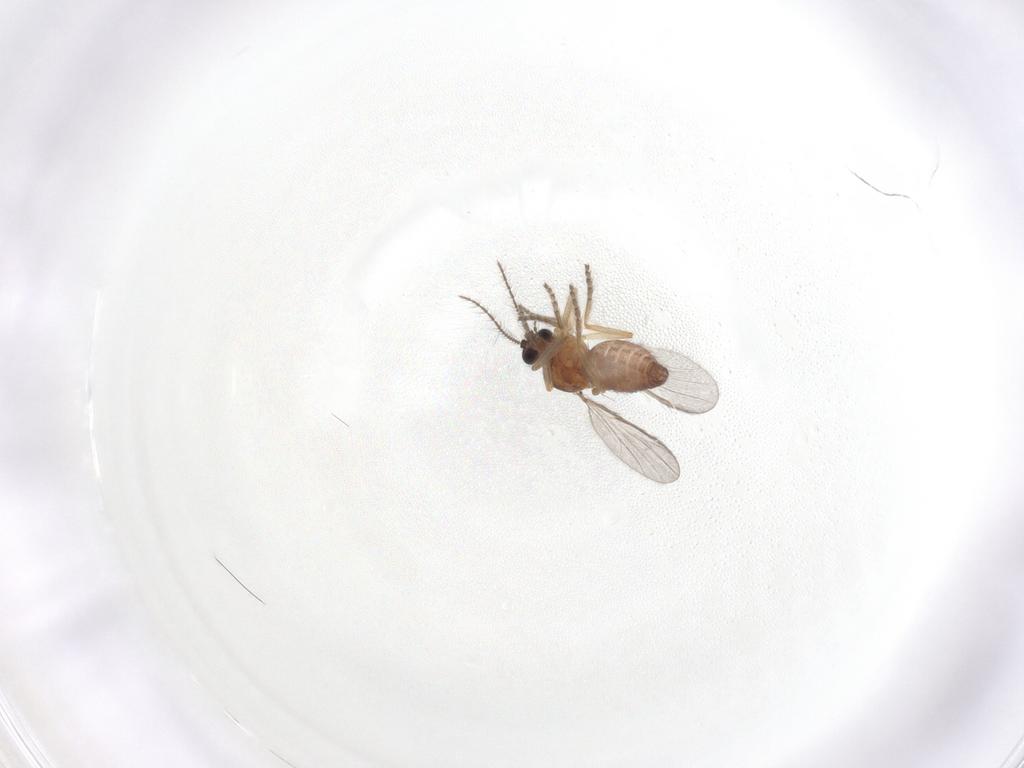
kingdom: Animalia
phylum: Arthropoda
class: Insecta
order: Diptera
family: Ceratopogonidae
